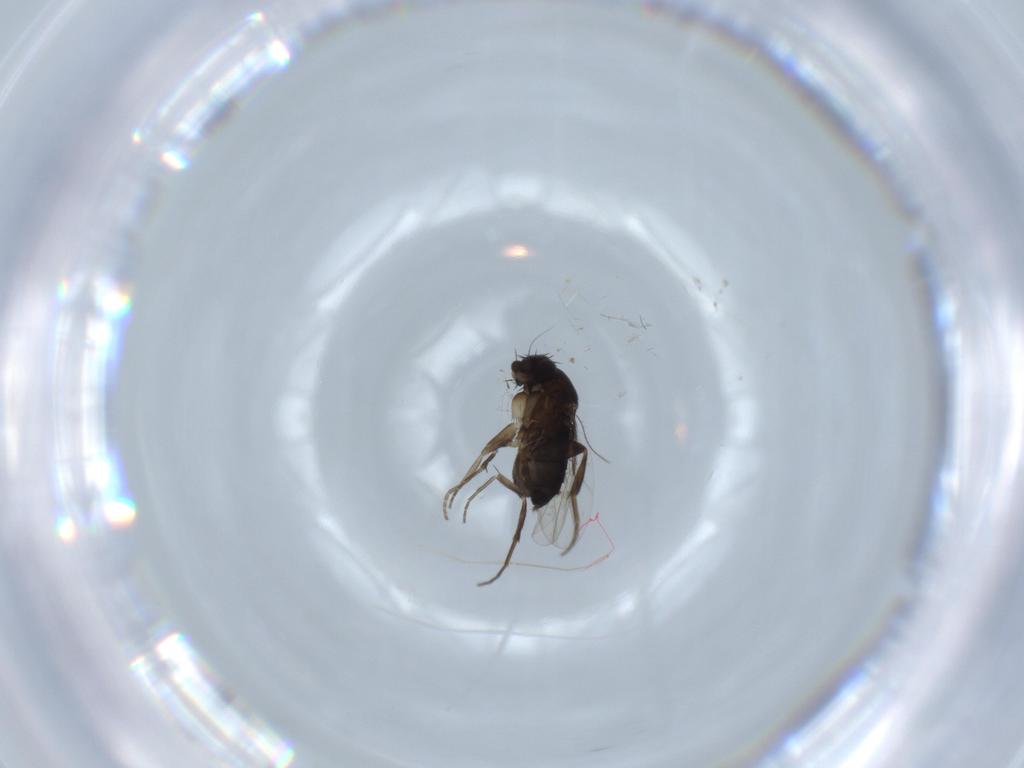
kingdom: Animalia
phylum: Arthropoda
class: Insecta
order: Diptera
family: Phoridae
